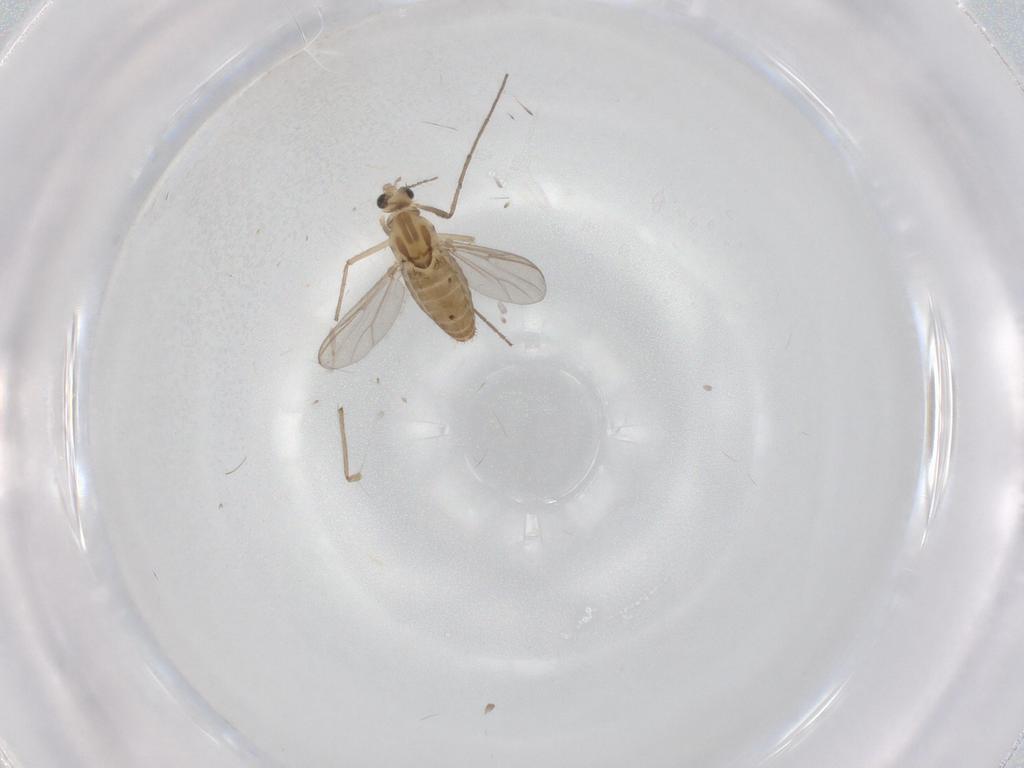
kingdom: Animalia
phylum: Arthropoda
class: Insecta
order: Diptera
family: Chironomidae
